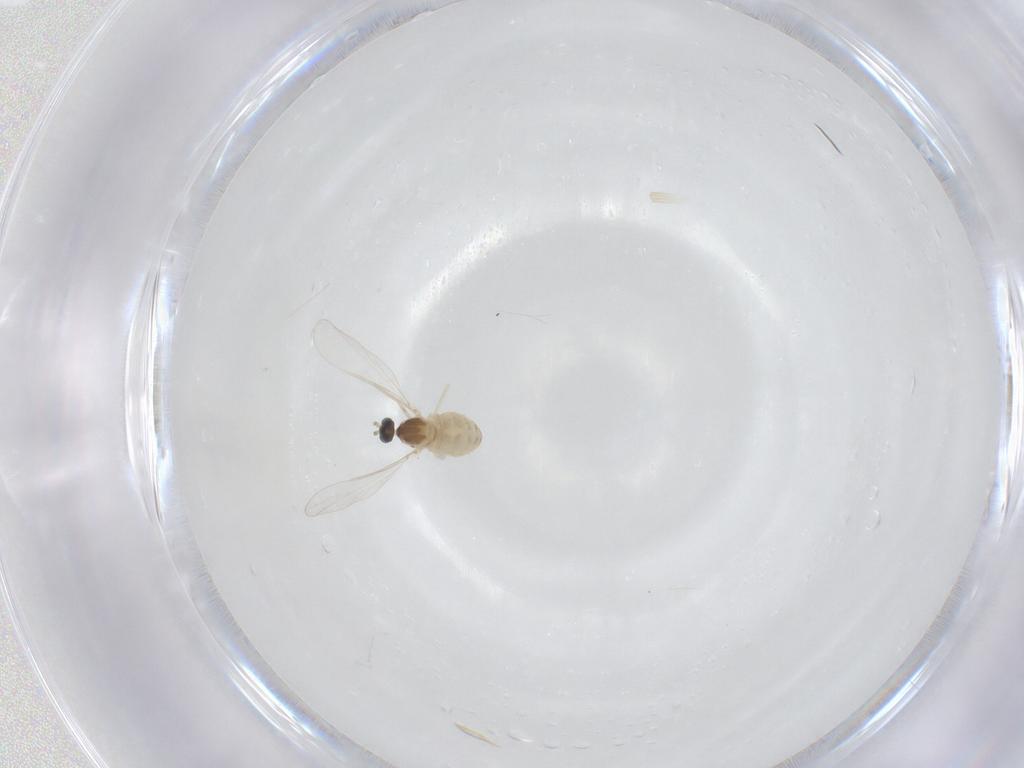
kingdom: Animalia
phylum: Arthropoda
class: Insecta
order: Diptera
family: Cecidomyiidae
